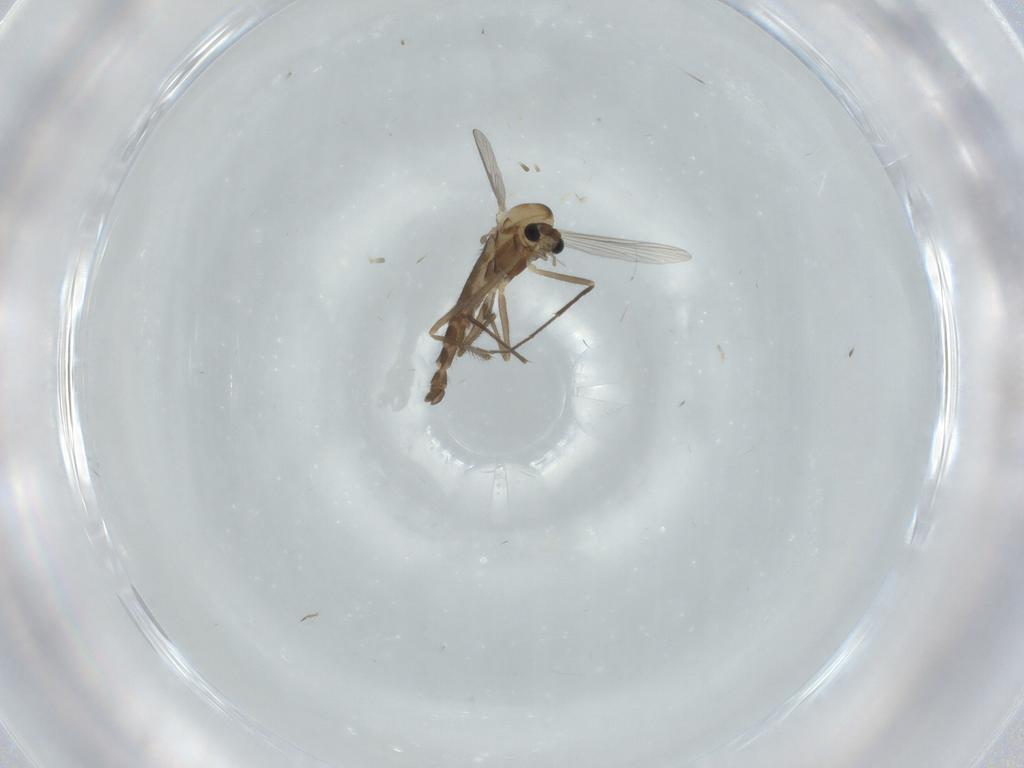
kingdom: Animalia
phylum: Arthropoda
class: Insecta
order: Diptera
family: Chironomidae
